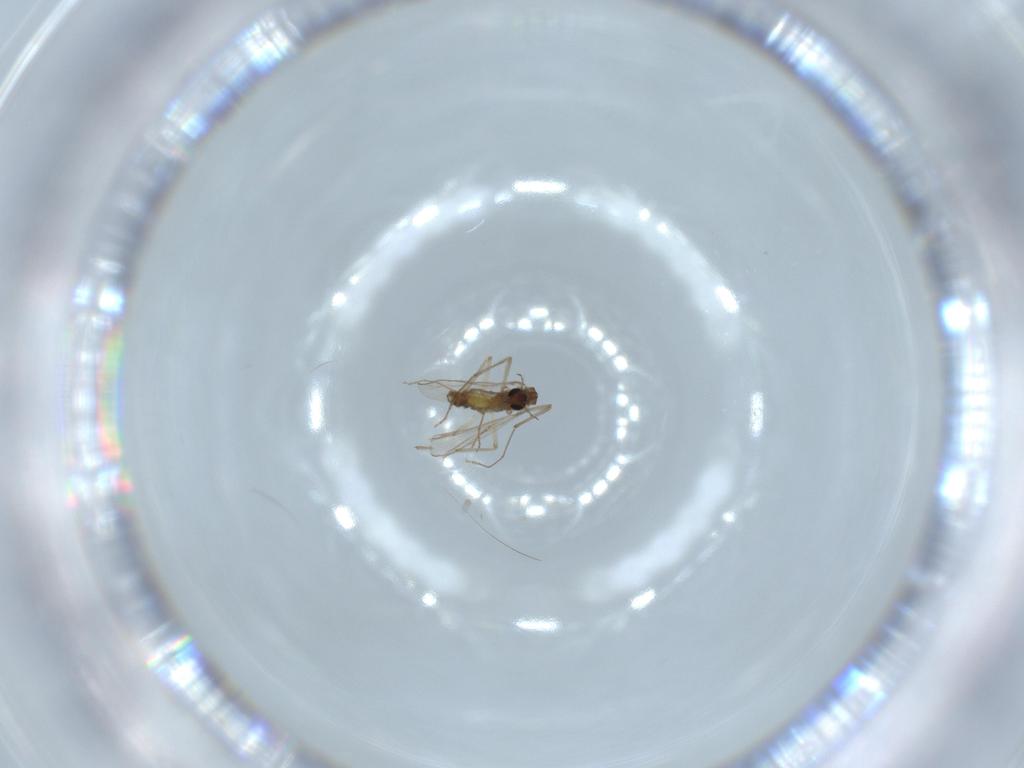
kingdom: Animalia
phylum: Arthropoda
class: Insecta
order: Diptera
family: Chironomidae
